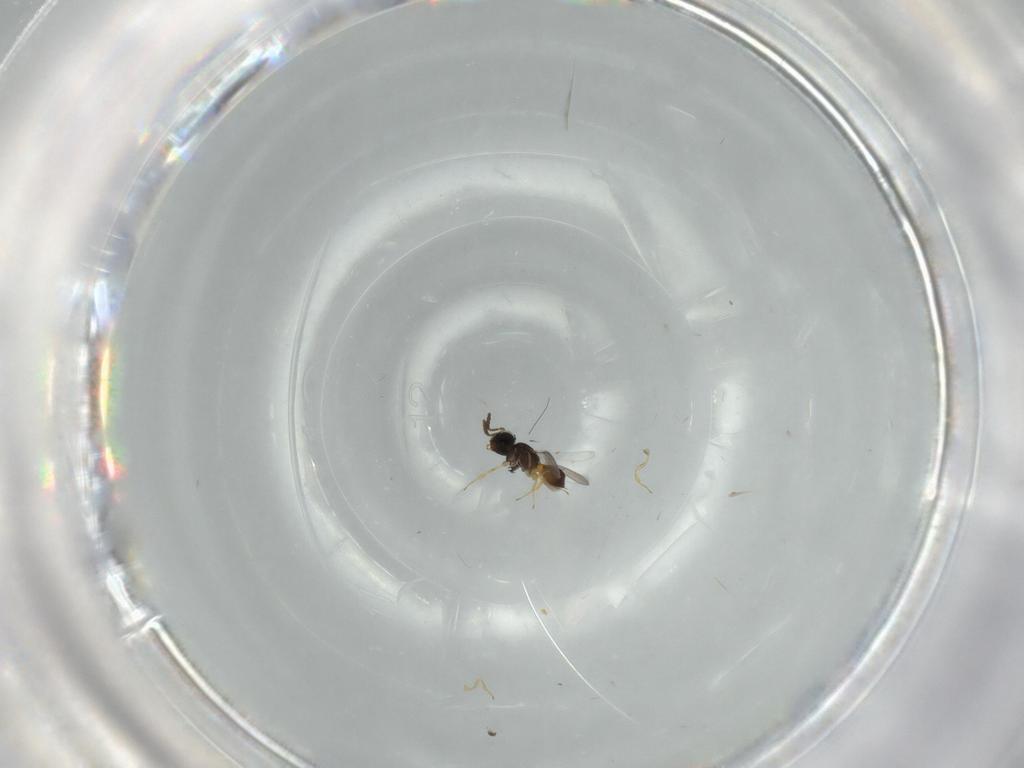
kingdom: Animalia
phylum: Arthropoda
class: Insecta
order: Hymenoptera
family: Scelionidae
